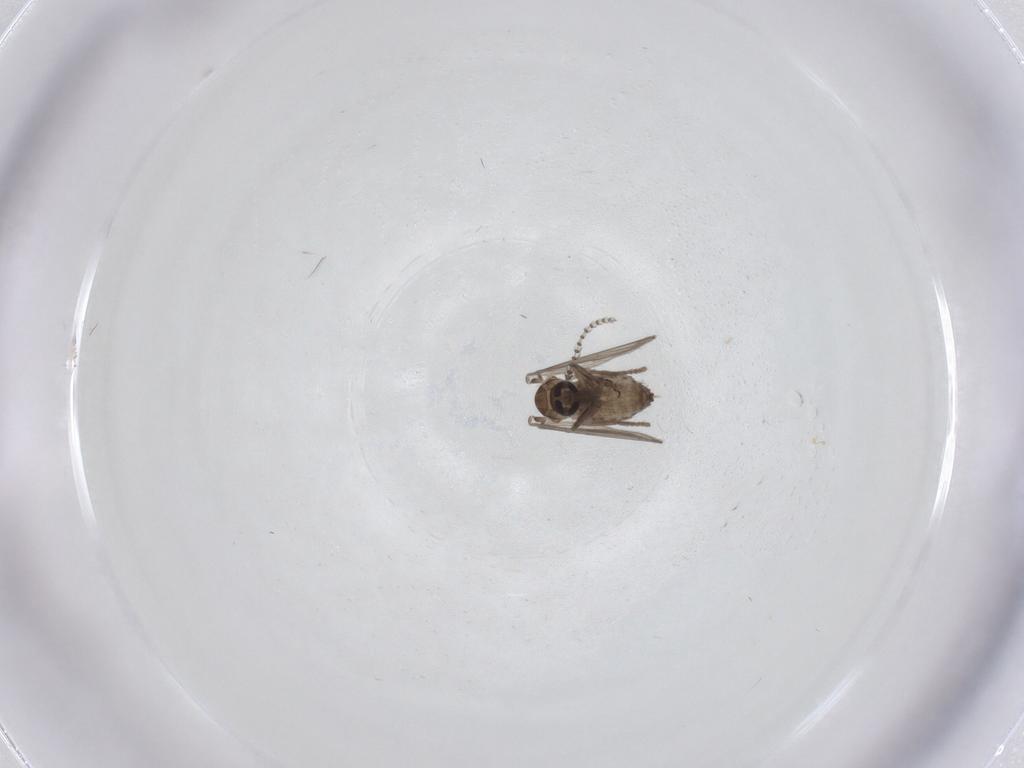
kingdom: Animalia
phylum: Arthropoda
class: Insecta
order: Diptera
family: Psychodidae
